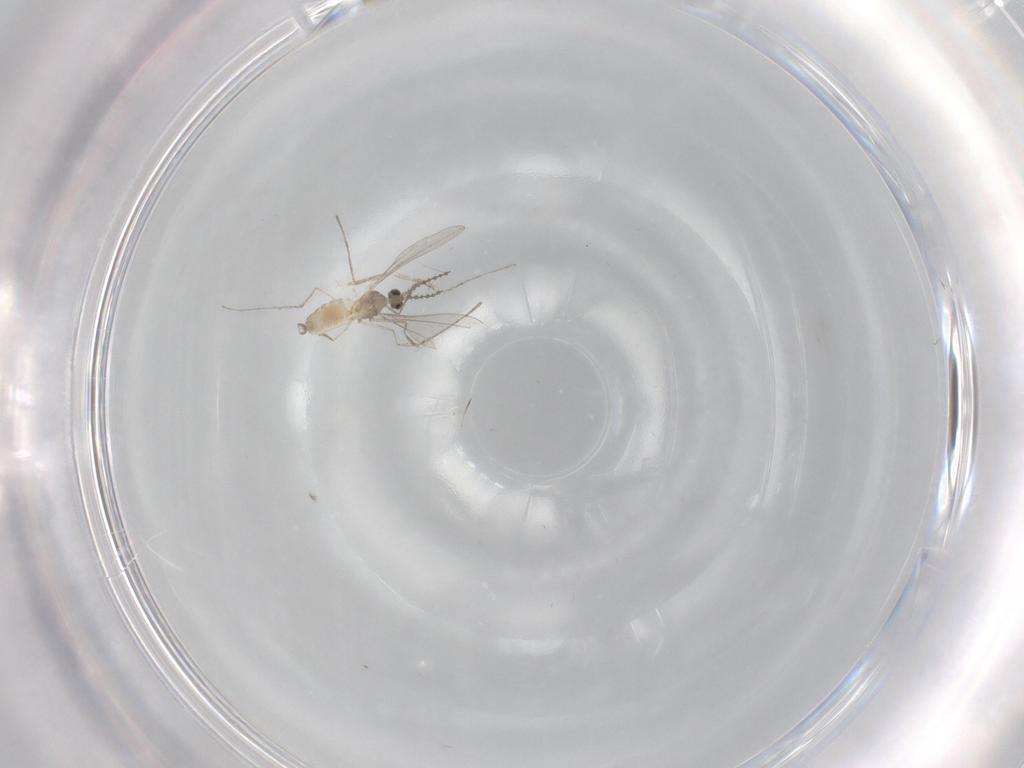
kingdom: Animalia
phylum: Arthropoda
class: Insecta
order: Diptera
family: Cecidomyiidae
